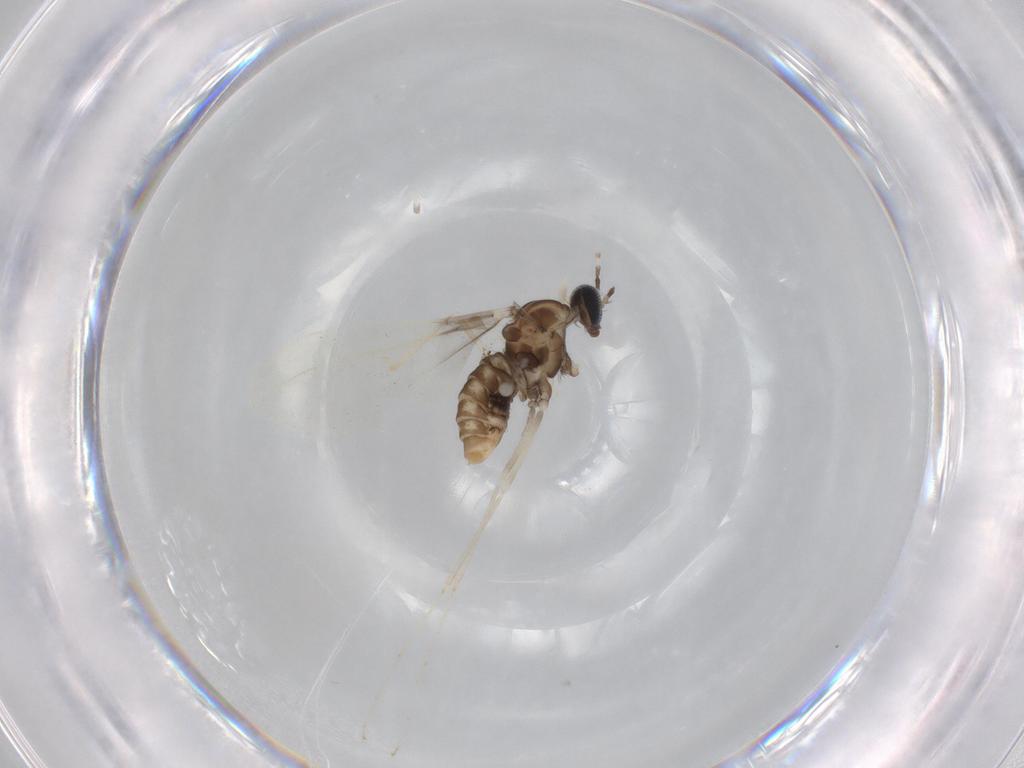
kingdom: Animalia
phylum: Arthropoda
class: Insecta
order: Diptera
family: Cecidomyiidae
